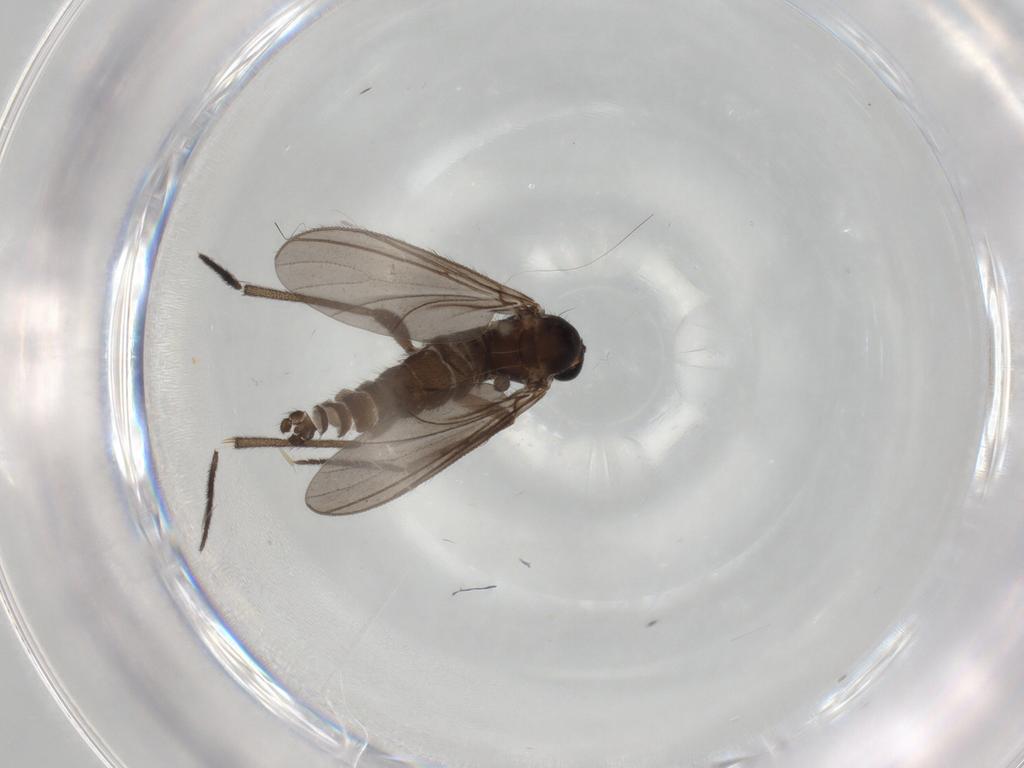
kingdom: Animalia
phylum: Arthropoda
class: Insecta
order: Diptera
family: Sciaridae
